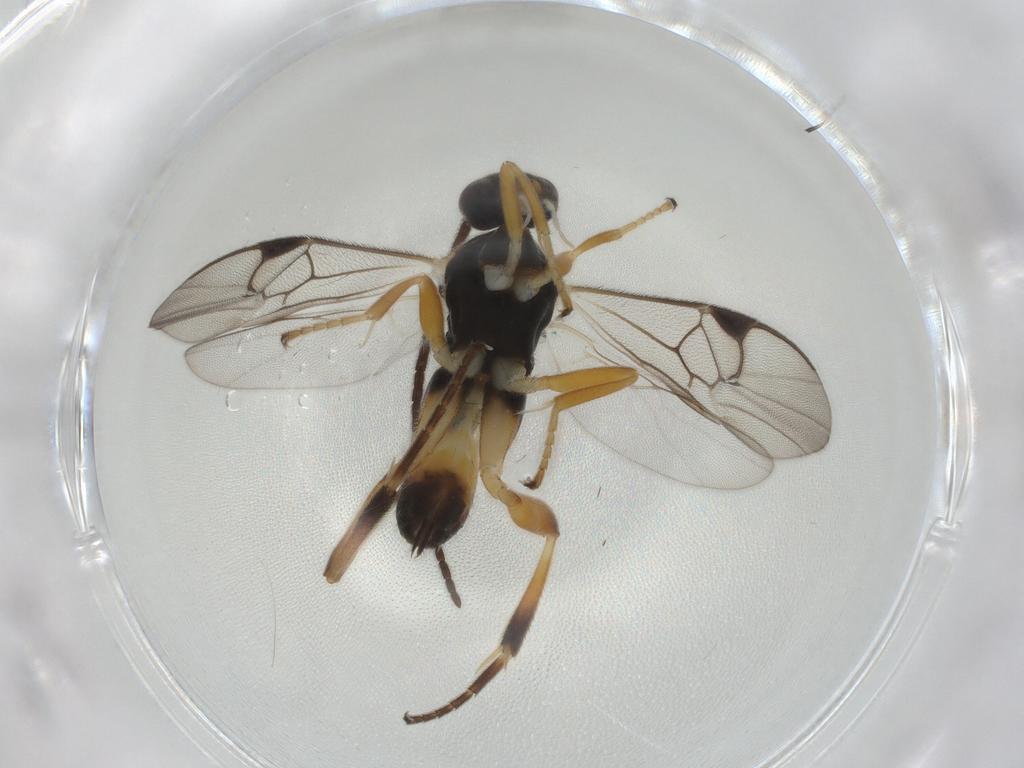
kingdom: Animalia
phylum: Arthropoda
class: Insecta
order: Hymenoptera
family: Braconidae
